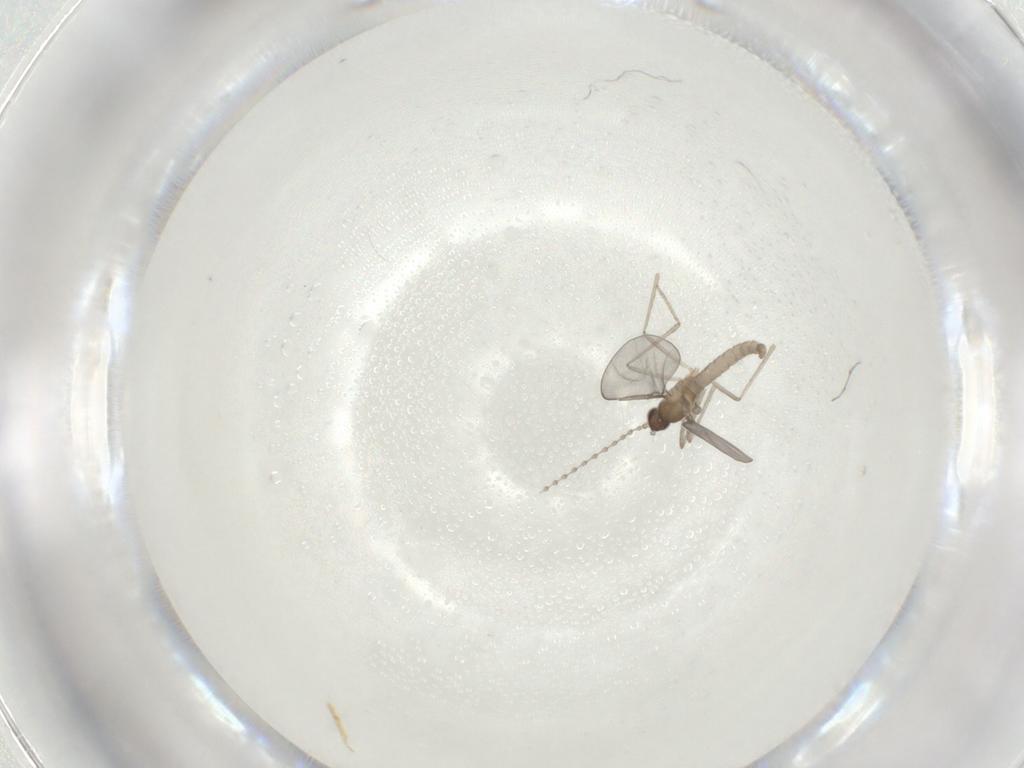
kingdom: Animalia
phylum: Arthropoda
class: Insecta
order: Diptera
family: Cecidomyiidae
